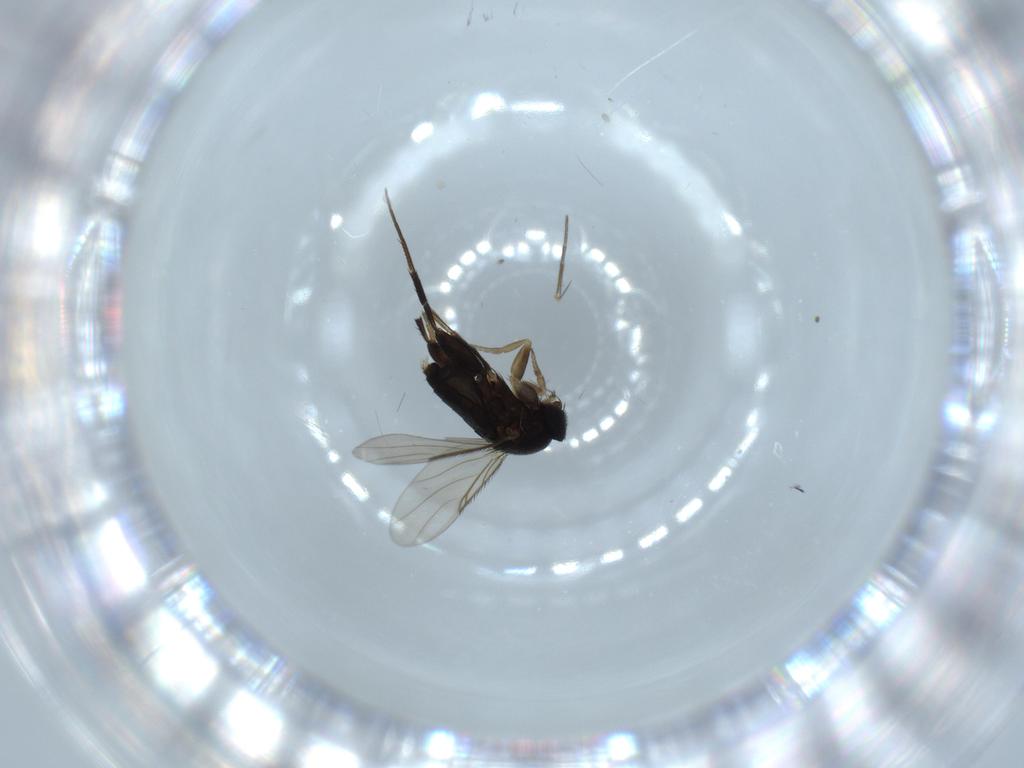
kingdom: Animalia
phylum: Arthropoda
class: Insecta
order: Diptera
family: Phoridae
